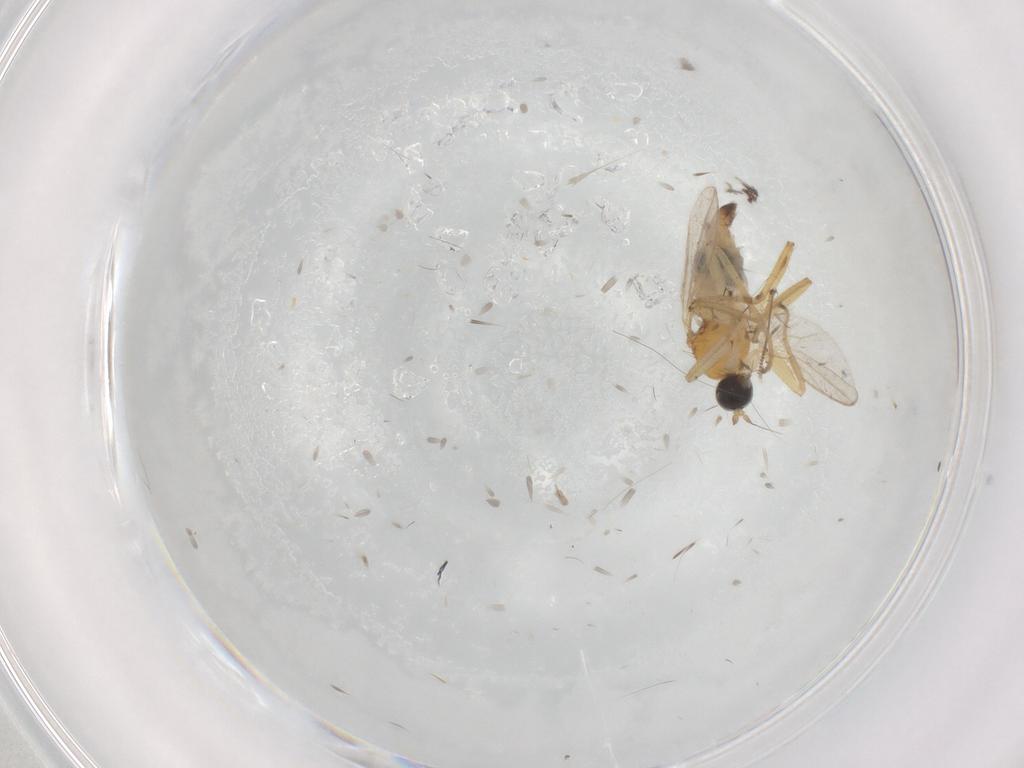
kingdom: Animalia
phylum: Arthropoda
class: Insecta
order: Diptera
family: Hybotidae
